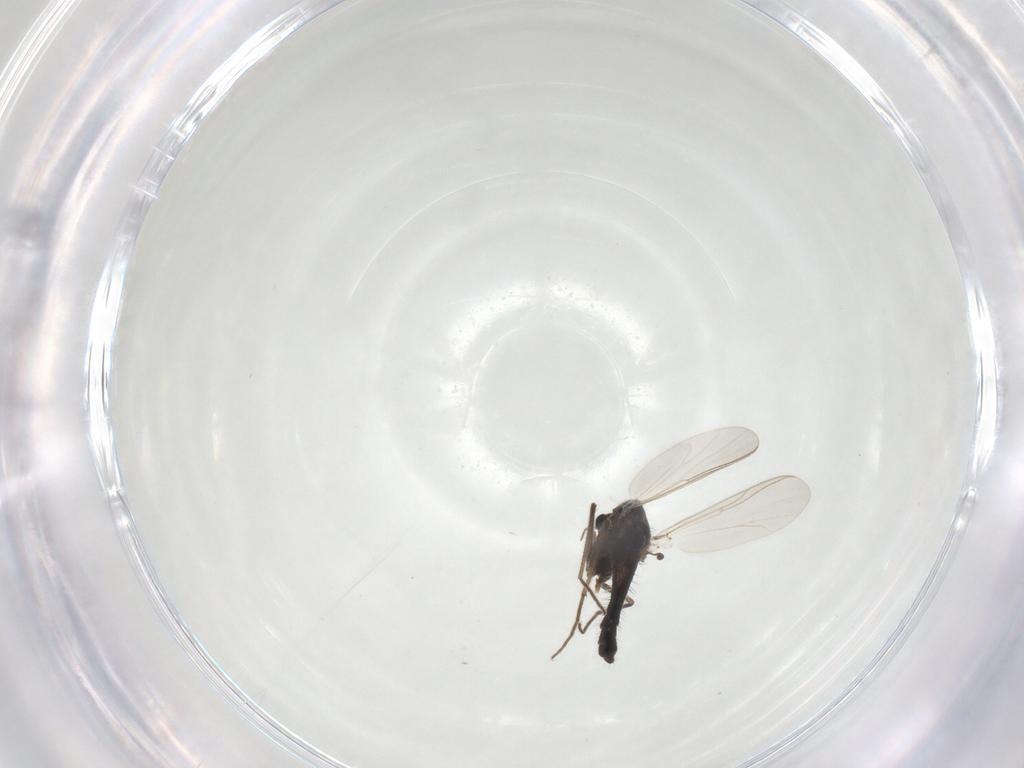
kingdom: Animalia
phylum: Arthropoda
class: Insecta
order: Diptera
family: Chironomidae
